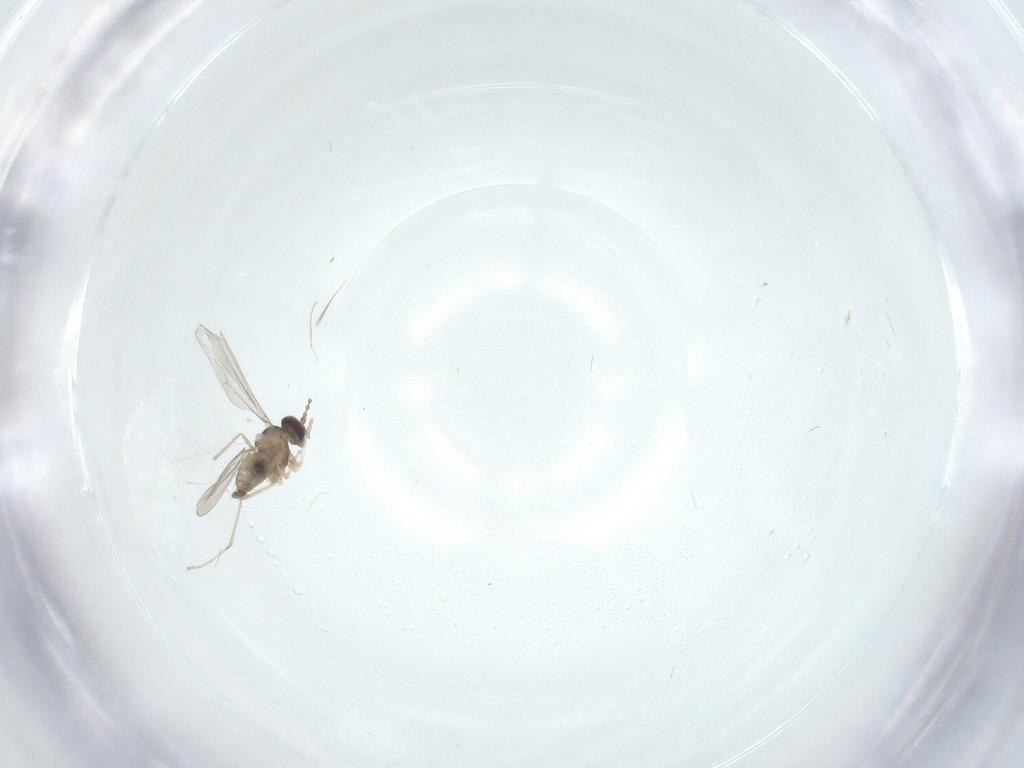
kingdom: Animalia
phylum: Arthropoda
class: Insecta
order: Diptera
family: Cecidomyiidae
